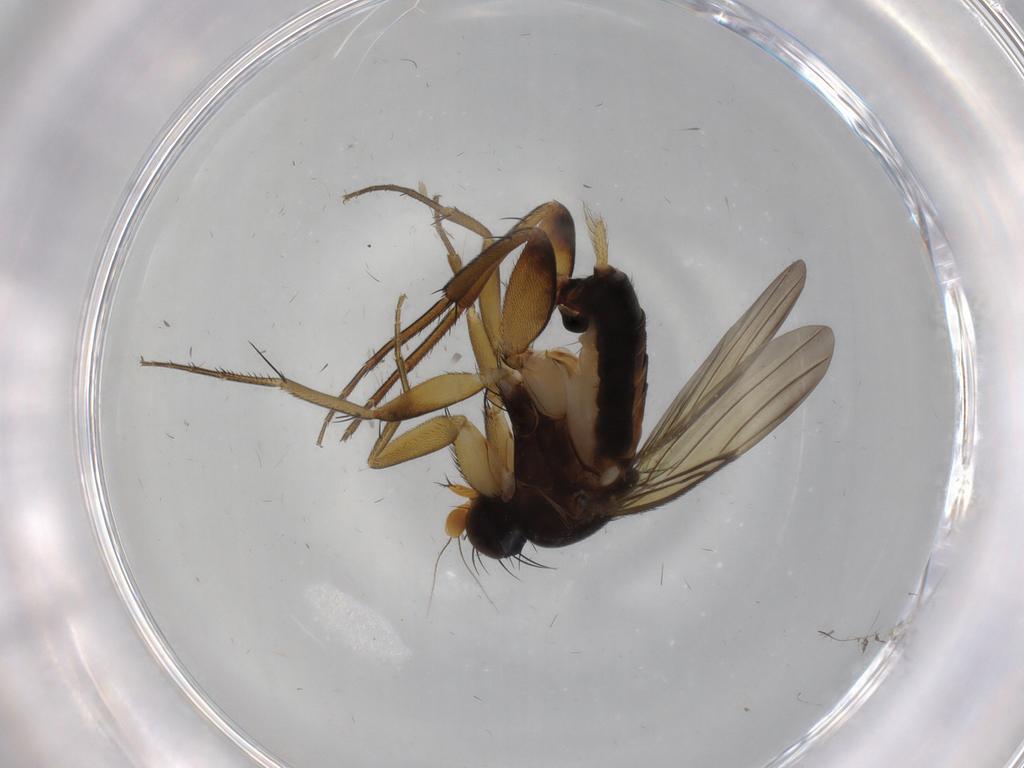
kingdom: Animalia
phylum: Arthropoda
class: Insecta
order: Diptera
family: Phoridae
